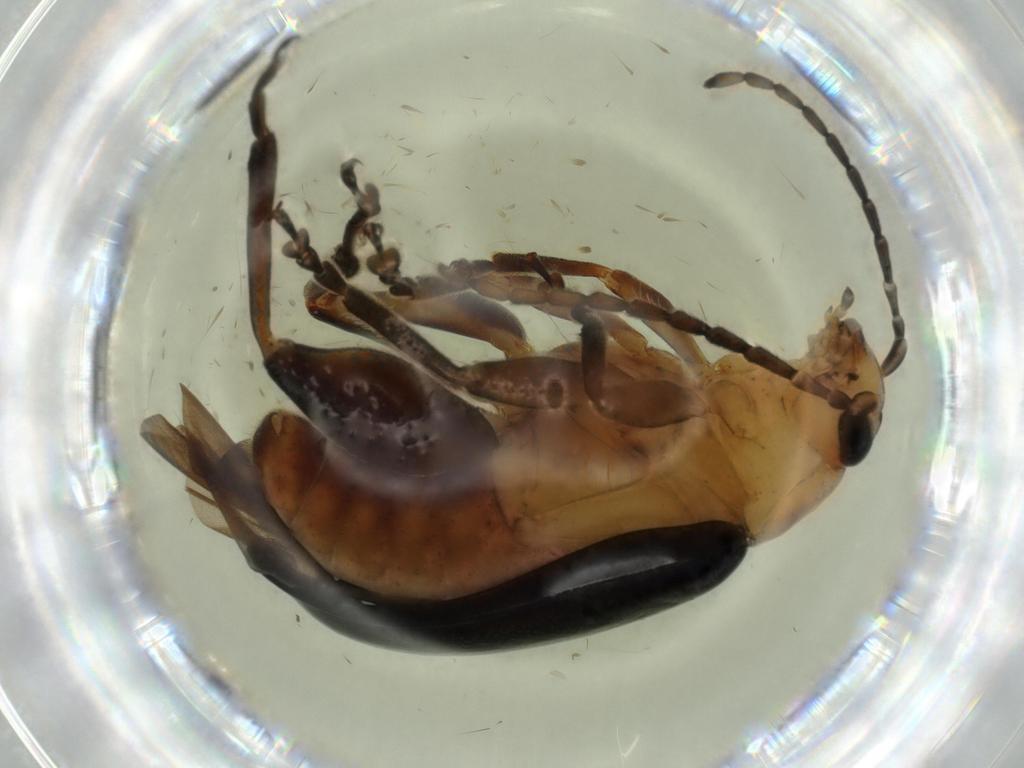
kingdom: Animalia
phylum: Arthropoda
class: Insecta
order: Coleoptera
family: Chrysomelidae
